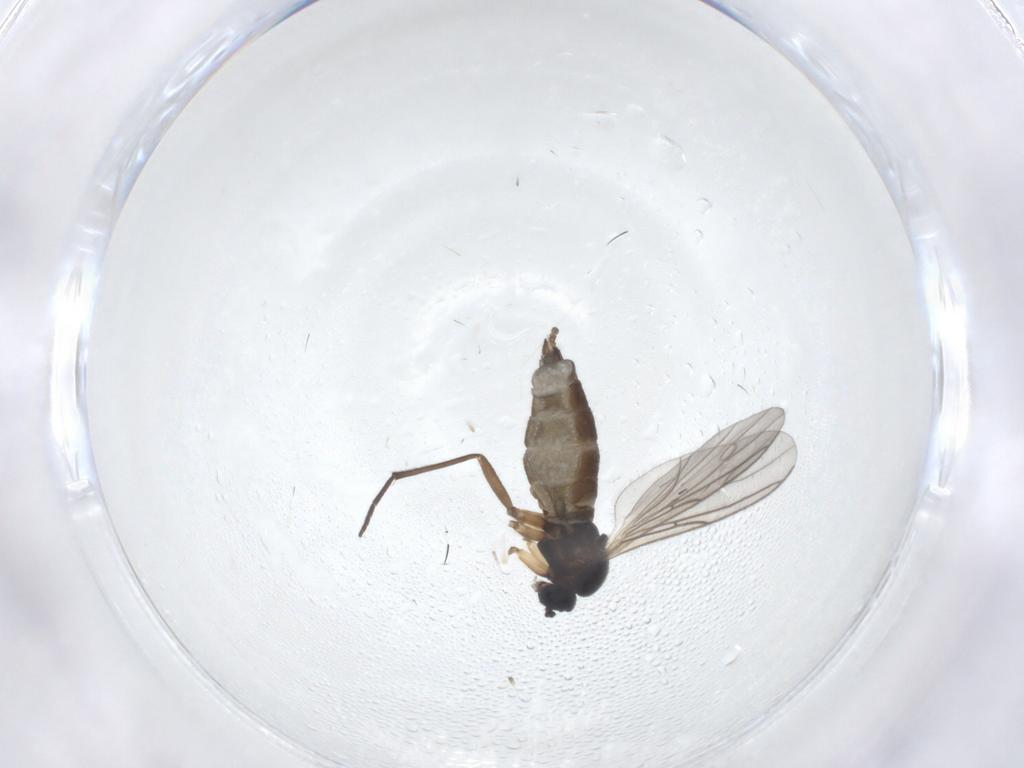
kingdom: Animalia
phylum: Arthropoda
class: Insecta
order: Diptera
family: Sciaridae
